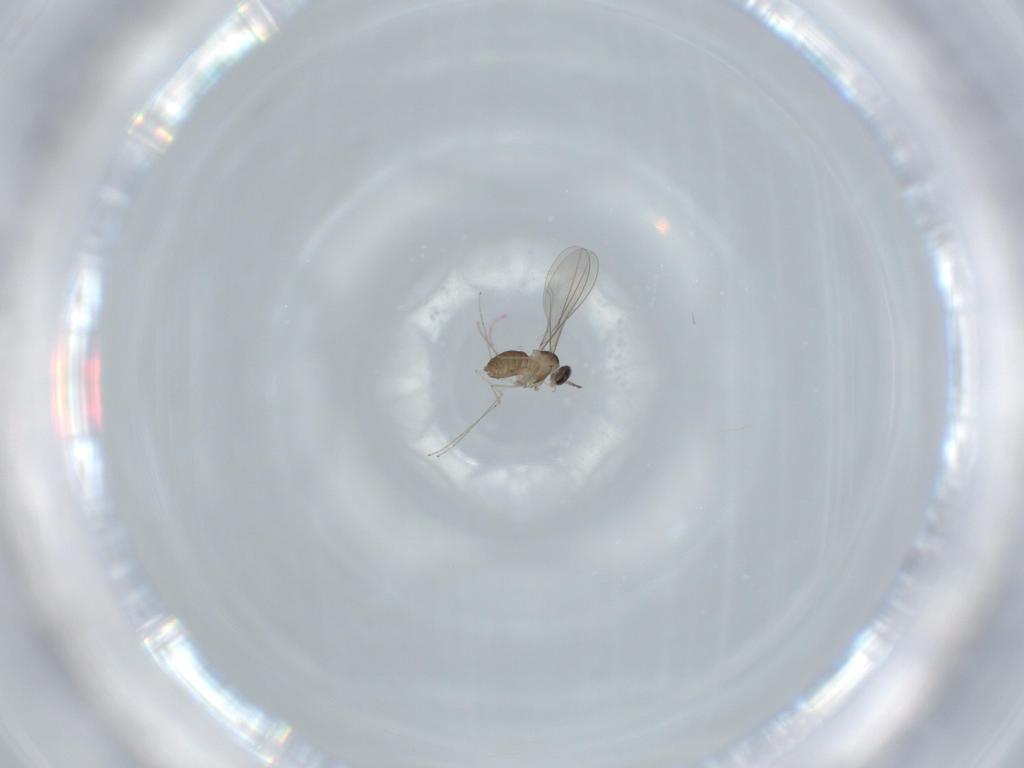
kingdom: Animalia
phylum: Arthropoda
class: Insecta
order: Diptera
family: Cecidomyiidae
